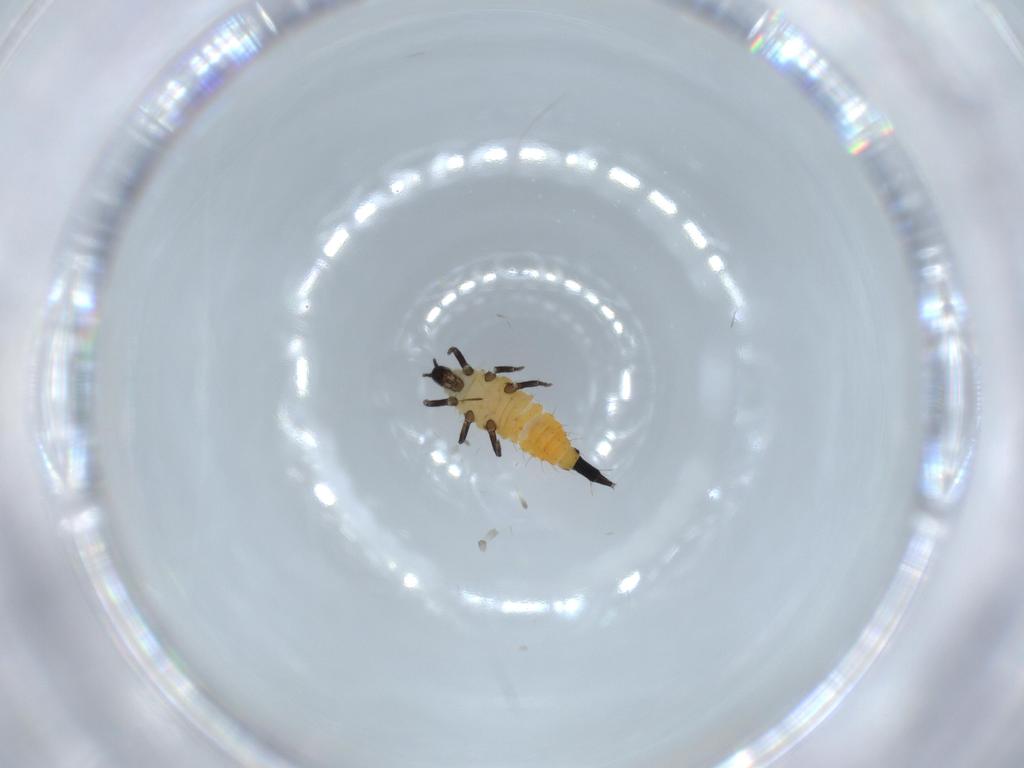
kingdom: Animalia
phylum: Arthropoda
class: Insecta
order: Thysanoptera
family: Phlaeothripidae
